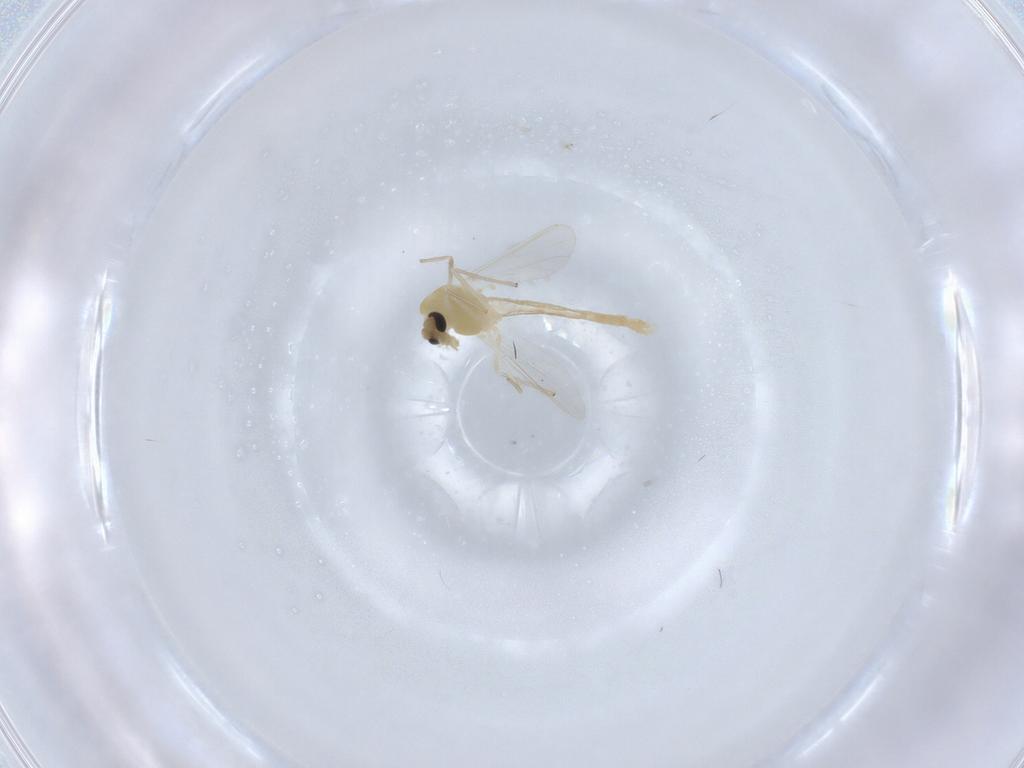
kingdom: Animalia
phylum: Arthropoda
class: Insecta
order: Diptera
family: Chironomidae
